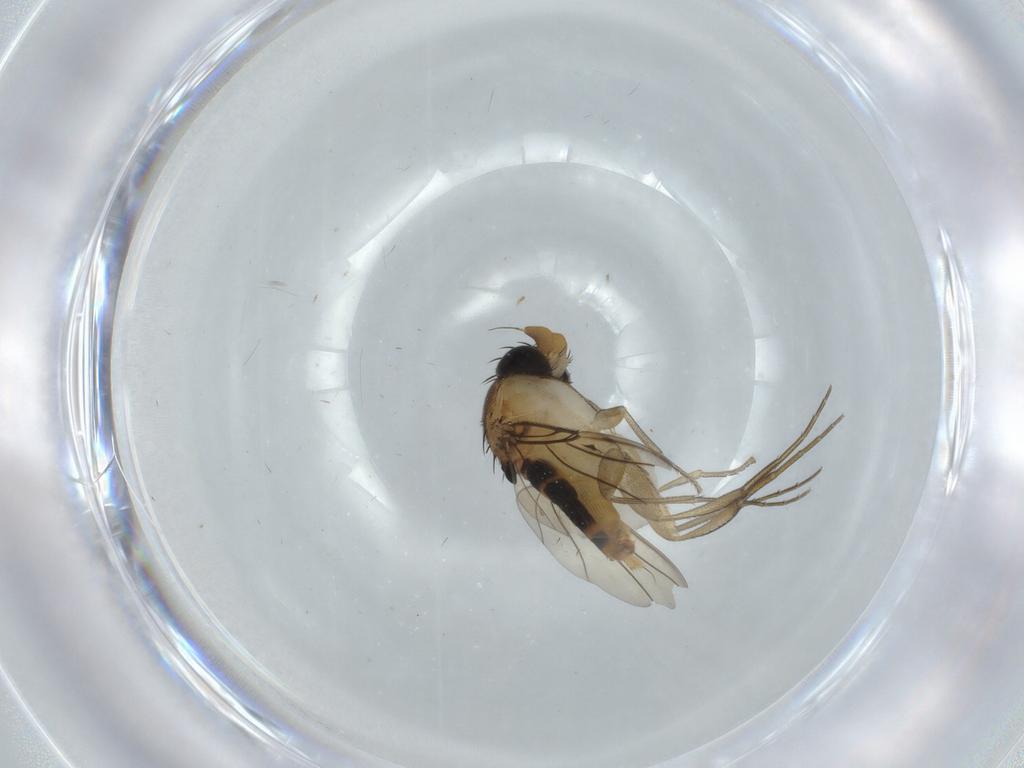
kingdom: Animalia
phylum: Arthropoda
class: Insecta
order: Diptera
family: Phoridae
